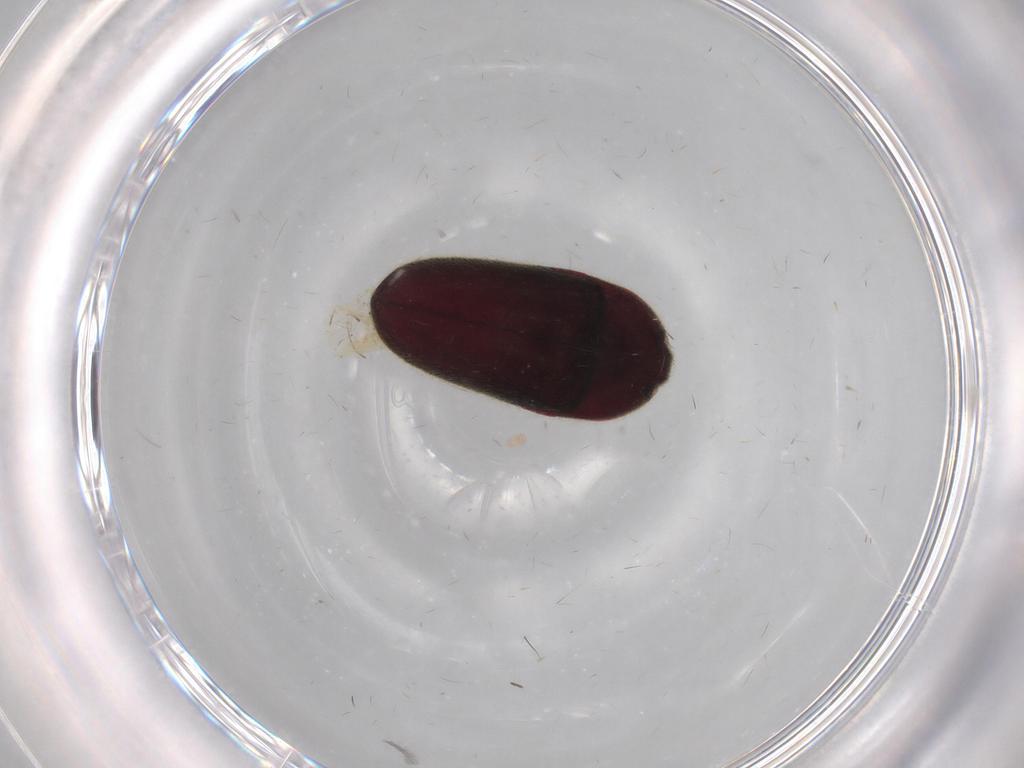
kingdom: Animalia
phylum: Arthropoda
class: Insecta
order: Coleoptera
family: Throscidae
